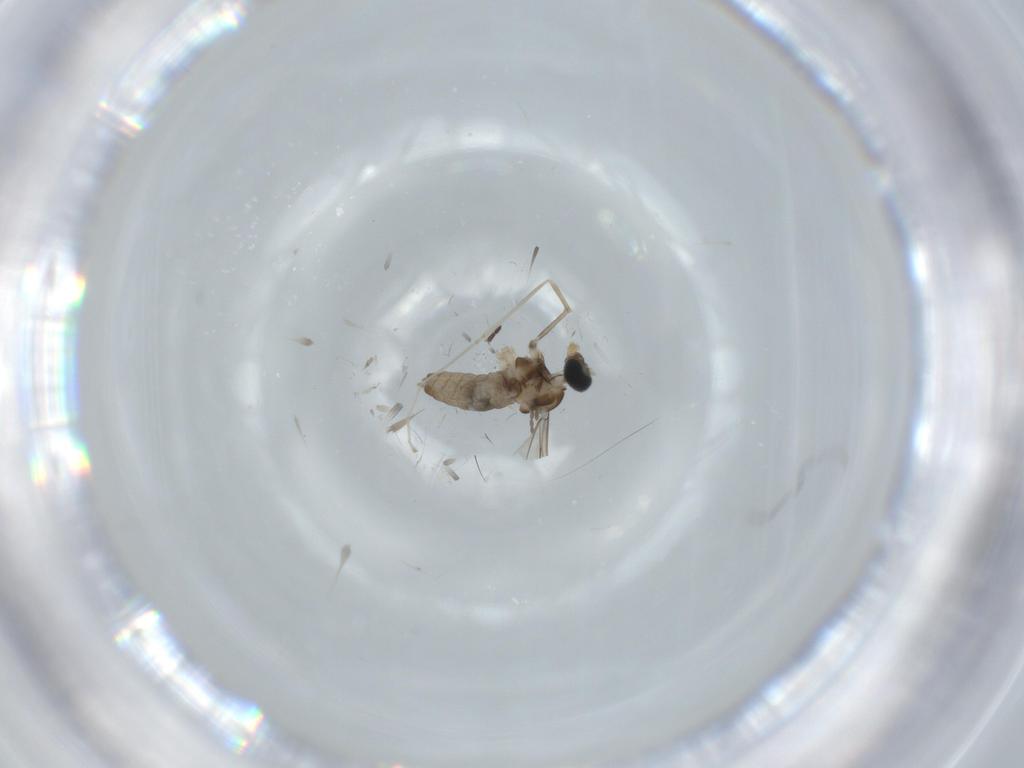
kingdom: Animalia
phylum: Arthropoda
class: Insecta
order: Diptera
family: Cecidomyiidae
